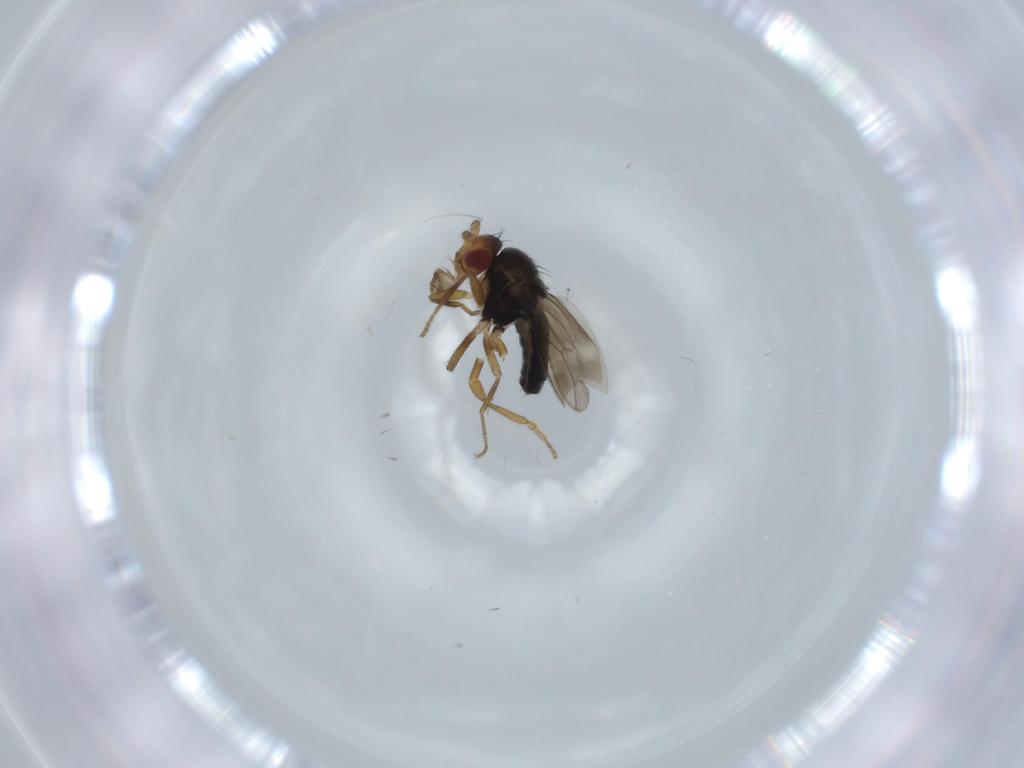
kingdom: Animalia
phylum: Arthropoda
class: Insecta
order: Diptera
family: Sphaeroceridae
